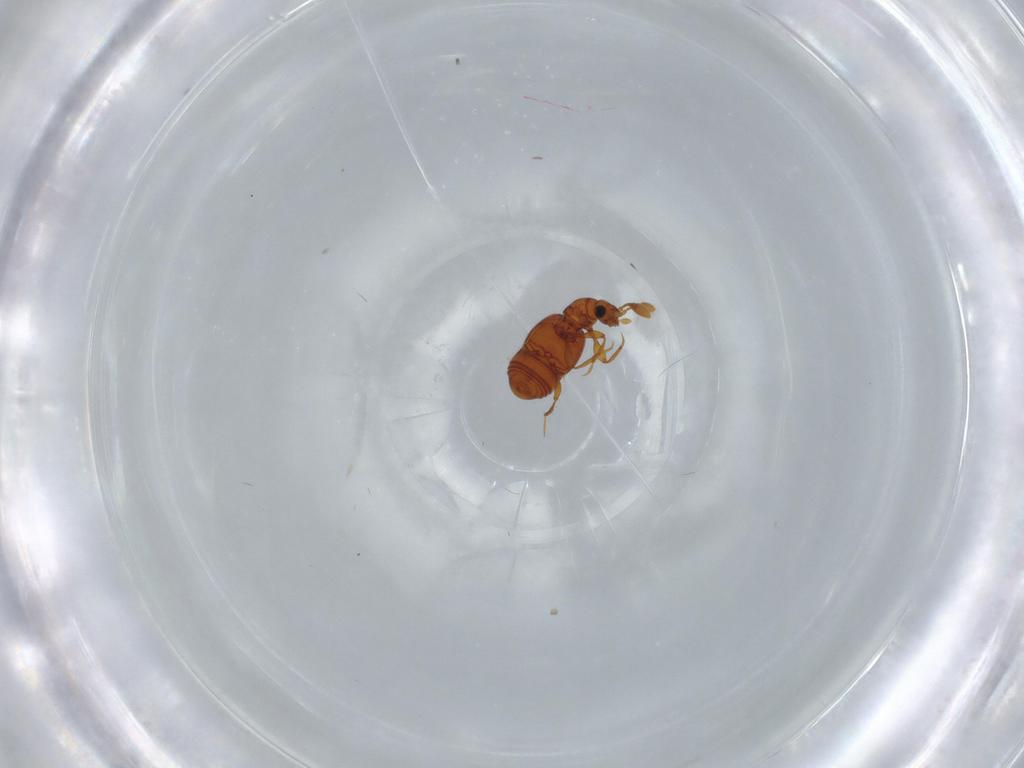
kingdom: Animalia
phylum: Arthropoda
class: Insecta
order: Coleoptera
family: Staphylinidae
